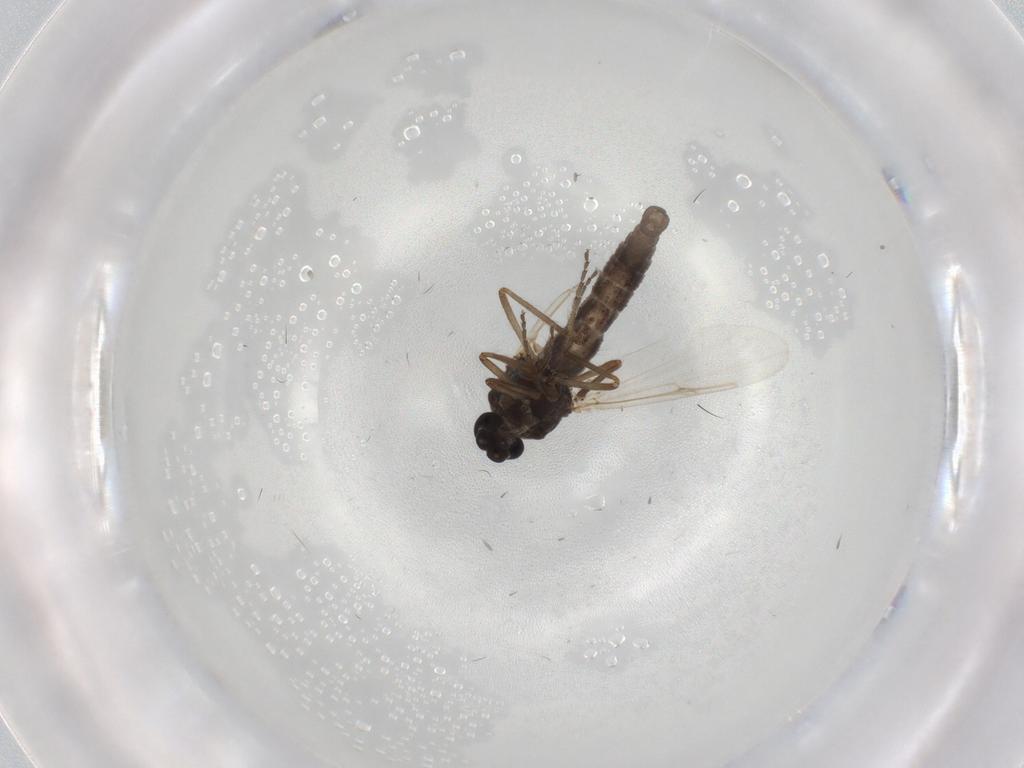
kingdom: Animalia
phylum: Arthropoda
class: Insecta
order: Diptera
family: Ceratopogonidae
